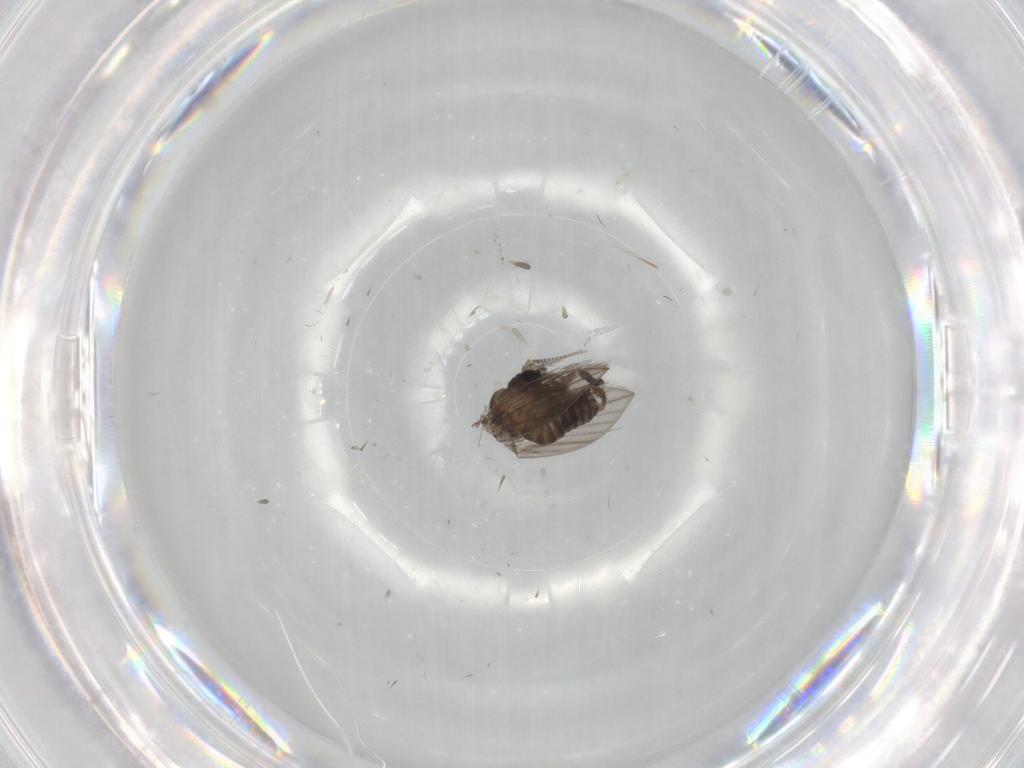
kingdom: Animalia
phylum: Arthropoda
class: Insecta
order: Diptera
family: Psychodidae
